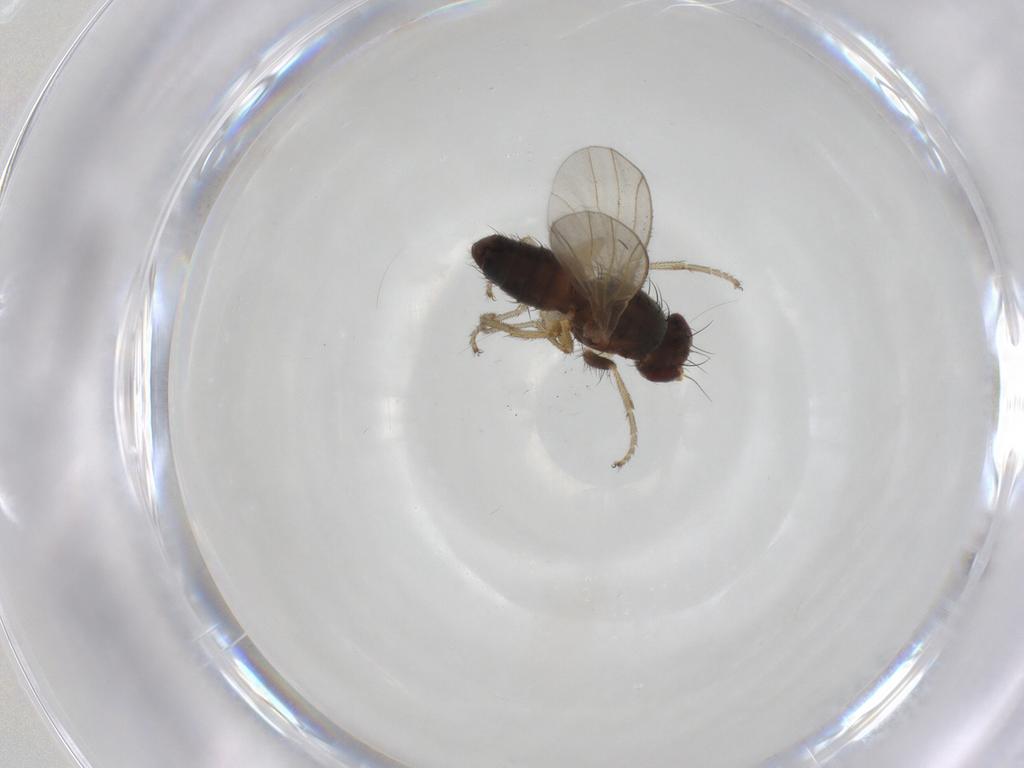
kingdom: Animalia
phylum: Arthropoda
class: Insecta
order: Diptera
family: Heleomyzidae
